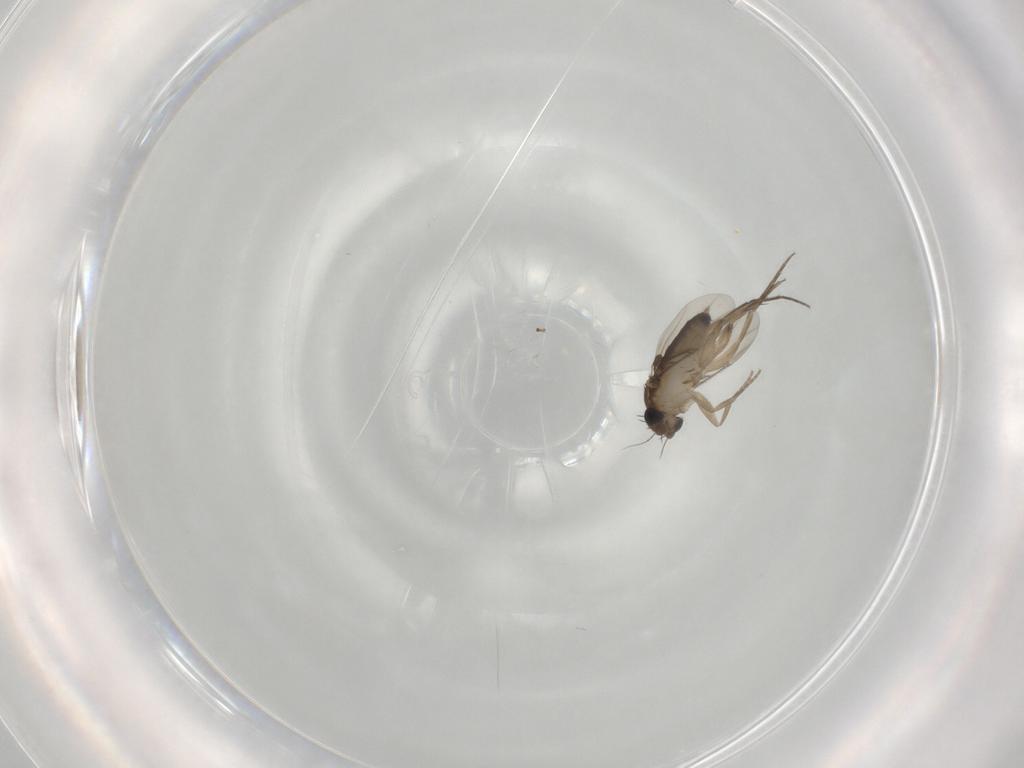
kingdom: Animalia
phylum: Arthropoda
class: Insecta
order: Diptera
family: Phoridae
